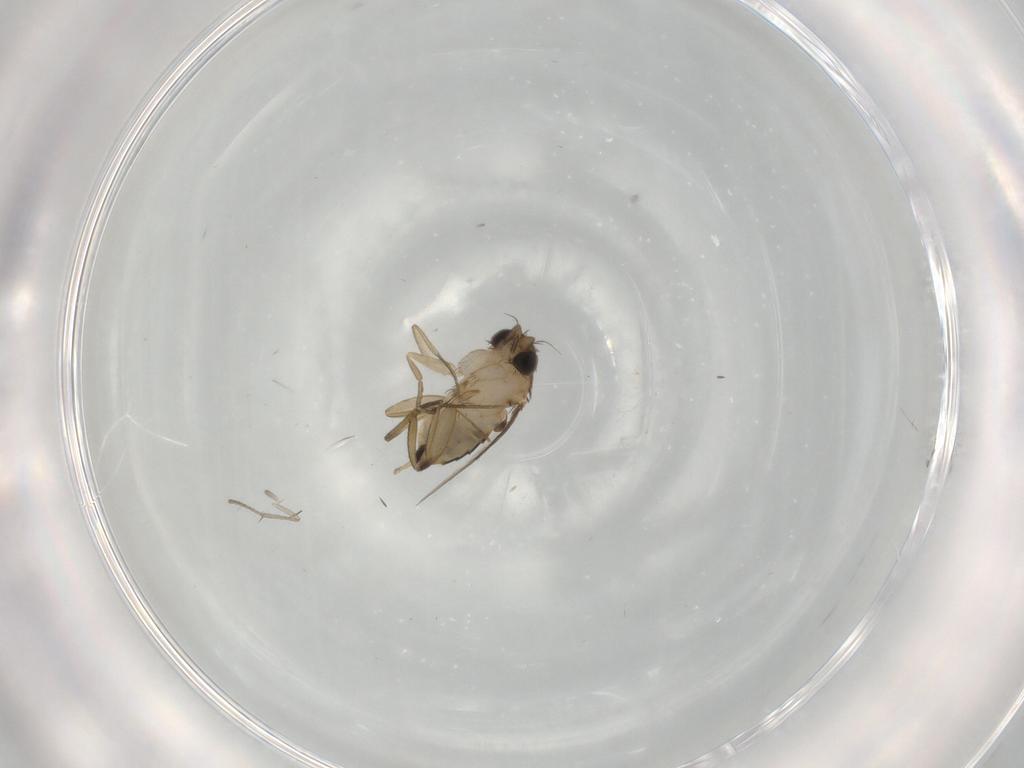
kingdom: Animalia
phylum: Arthropoda
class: Insecta
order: Diptera
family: Phoridae
